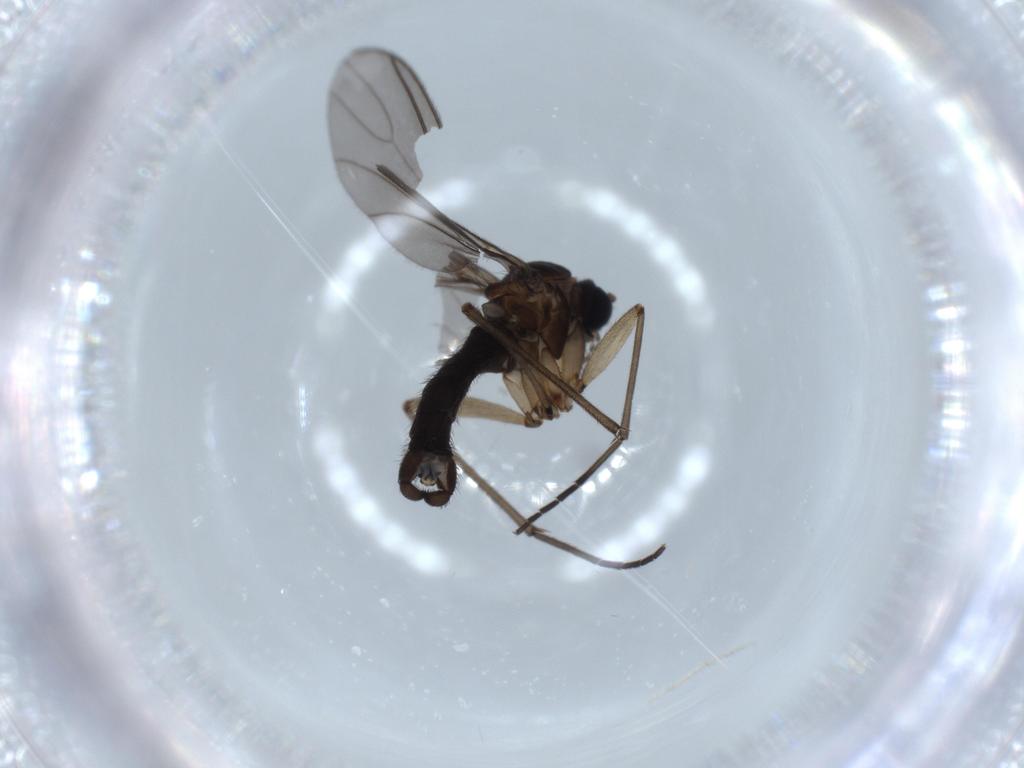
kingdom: Animalia
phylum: Arthropoda
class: Insecta
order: Diptera
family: Sciaridae
